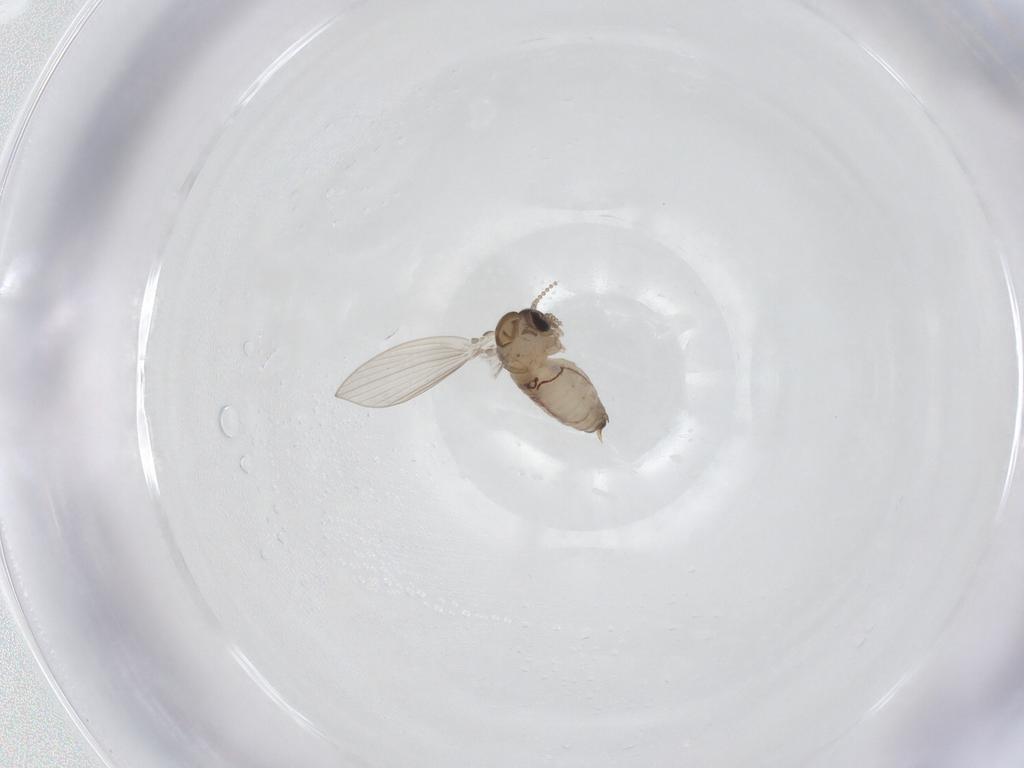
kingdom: Animalia
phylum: Arthropoda
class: Insecta
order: Diptera
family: Psychodidae
